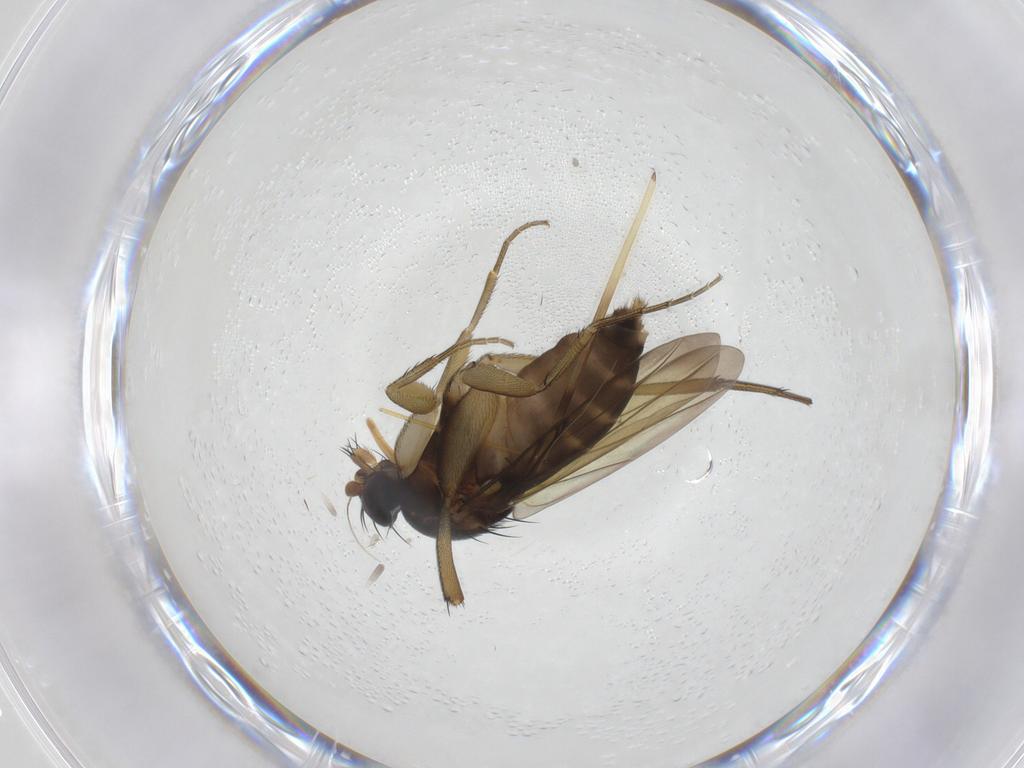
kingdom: Animalia
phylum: Arthropoda
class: Insecta
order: Diptera
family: Phoridae
